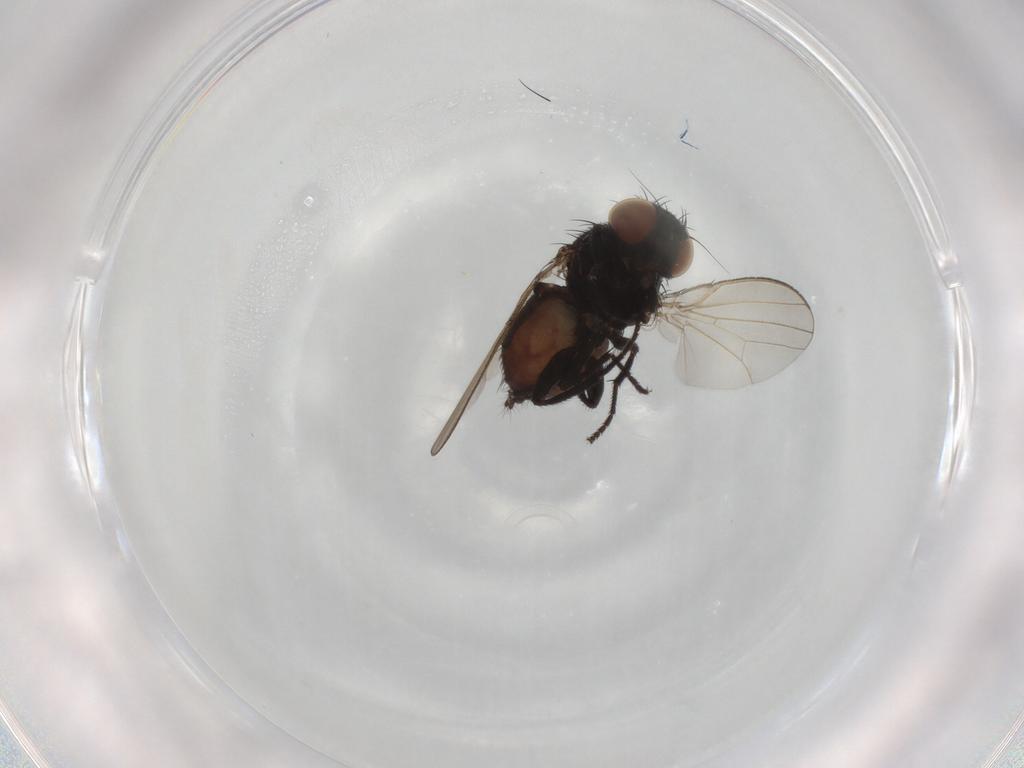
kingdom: Animalia
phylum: Arthropoda
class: Insecta
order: Diptera
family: Milichiidae
